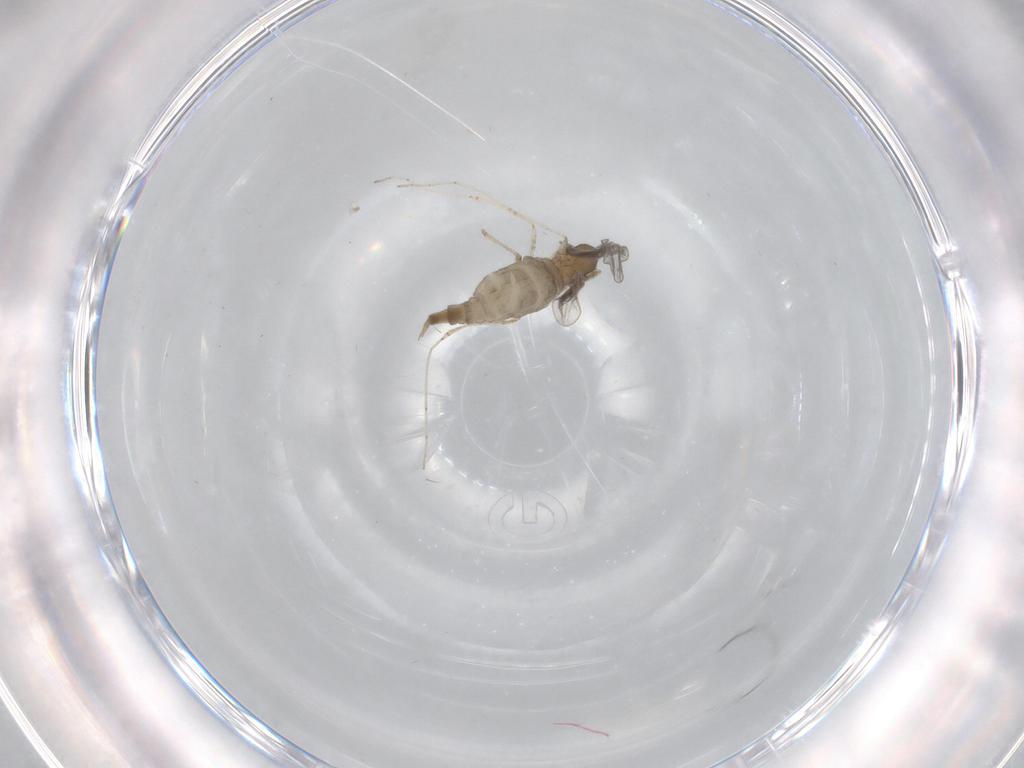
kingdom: Animalia
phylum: Arthropoda
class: Insecta
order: Diptera
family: Cecidomyiidae
